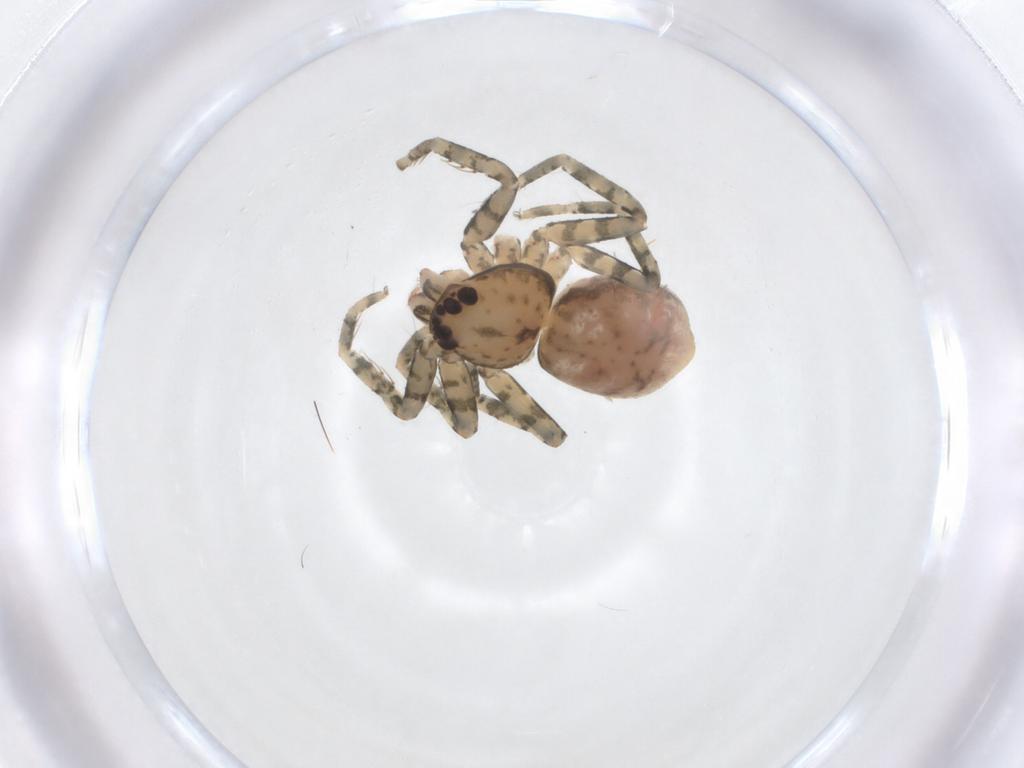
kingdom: Animalia
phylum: Arthropoda
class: Arachnida
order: Araneae
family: Selenopidae
